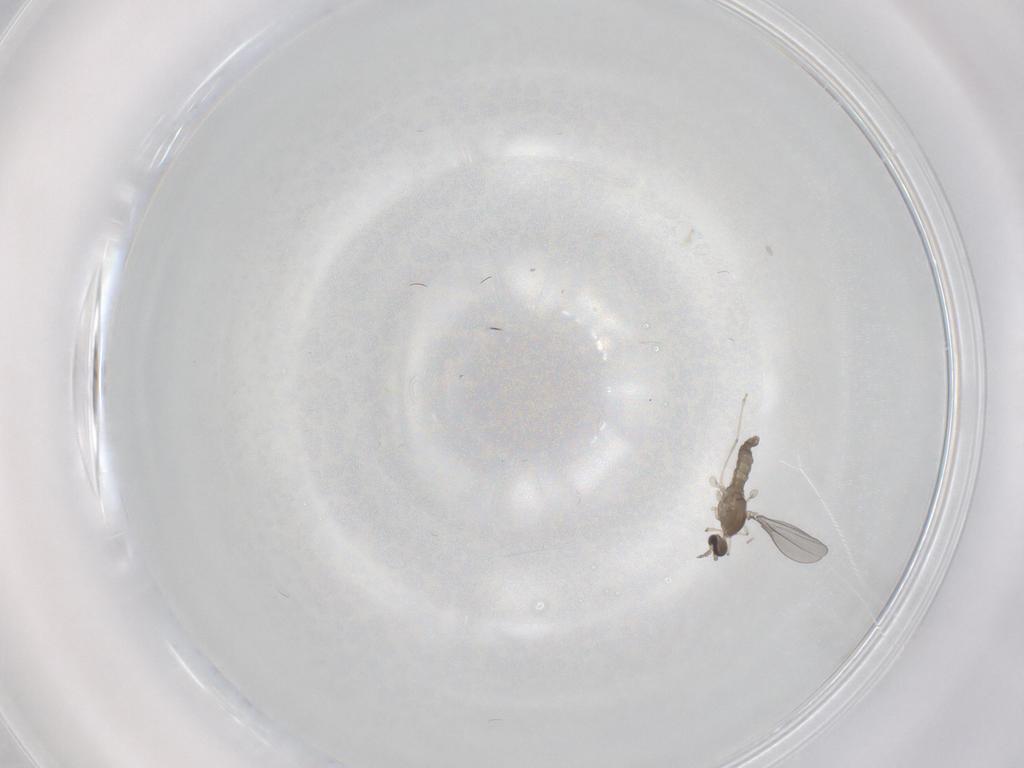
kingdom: Animalia
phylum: Arthropoda
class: Insecta
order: Diptera
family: Cecidomyiidae
